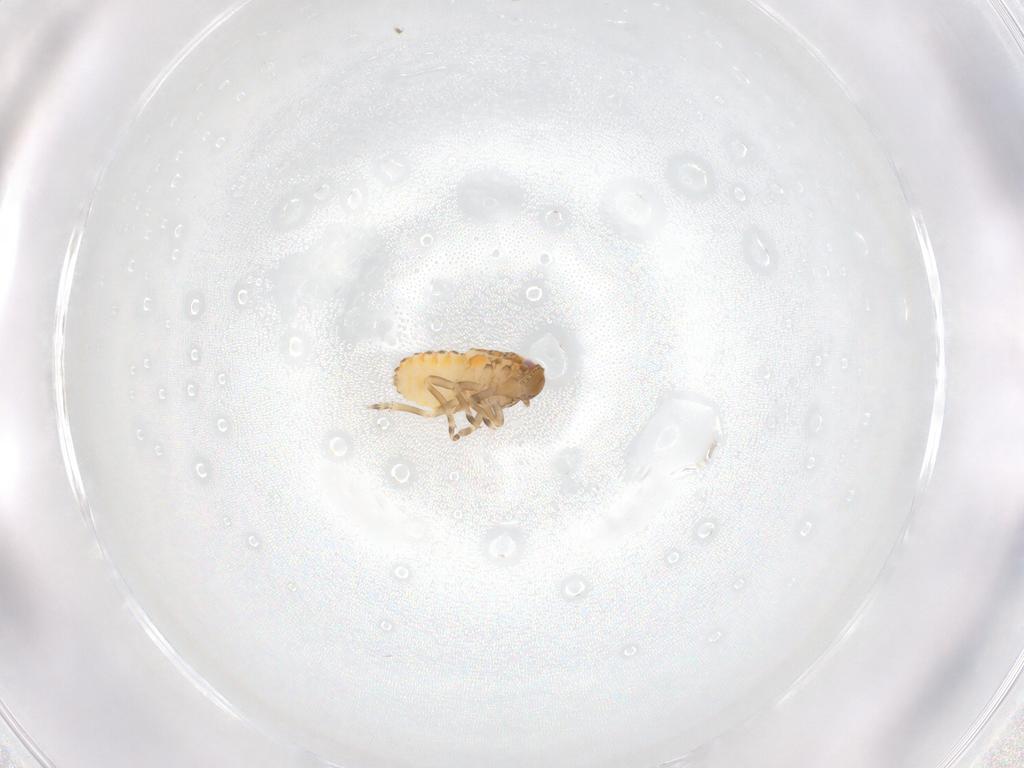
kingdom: Animalia
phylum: Arthropoda
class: Insecta
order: Hemiptera
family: Flatidae
